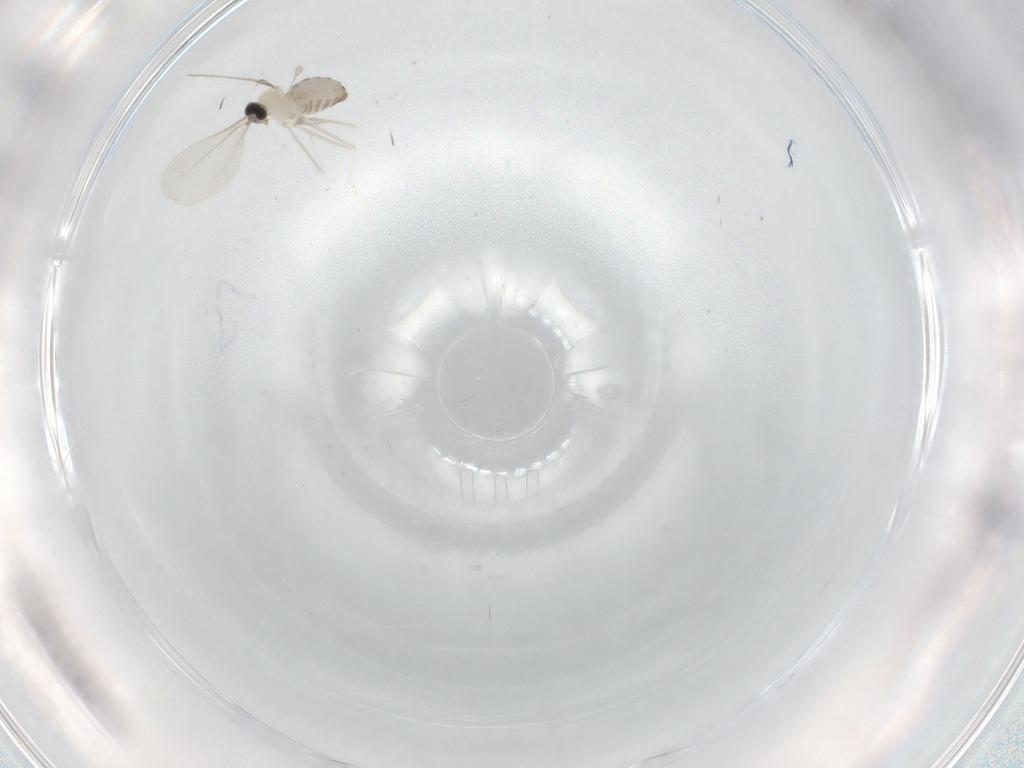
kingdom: Animalia
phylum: Arthropoda
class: Insecta
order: Diptera
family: Cecidomyiidae
